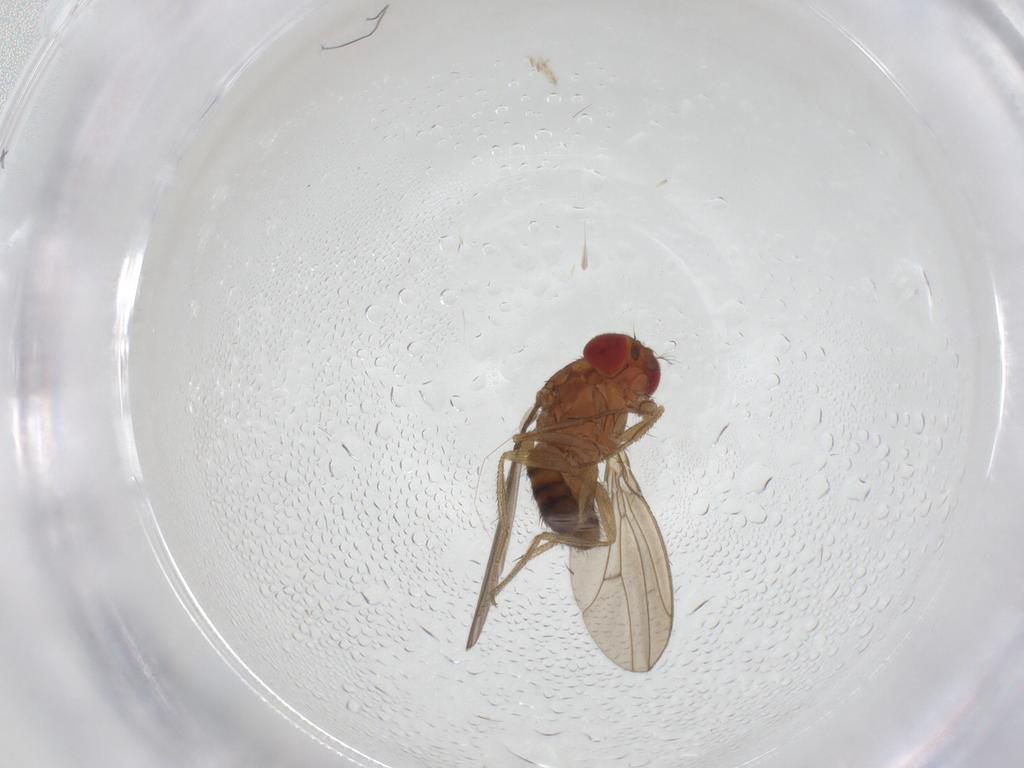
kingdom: Animalia
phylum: Arthropoda
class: Insecta
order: Diptera
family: Drosophilidae
